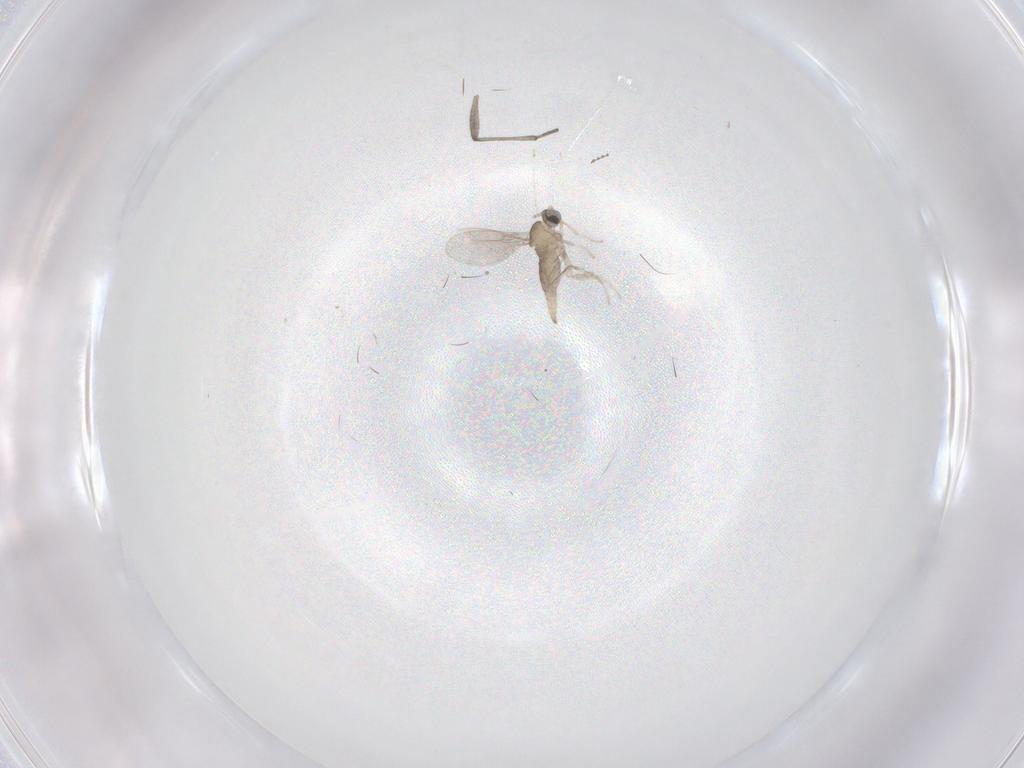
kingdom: Animalia
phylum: Arthropoda
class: Insecta
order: Diptera
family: Sciaridae
